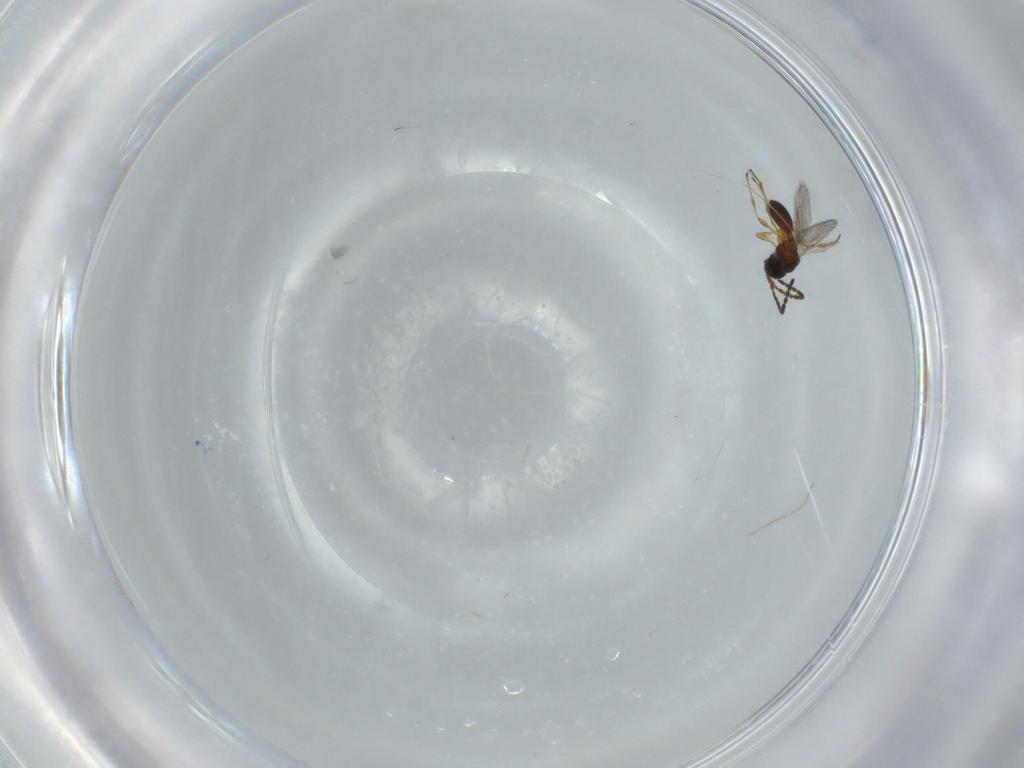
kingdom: Animalia
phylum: Arthropoda
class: Insecta
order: Hymenoptera
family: Diapriidae
